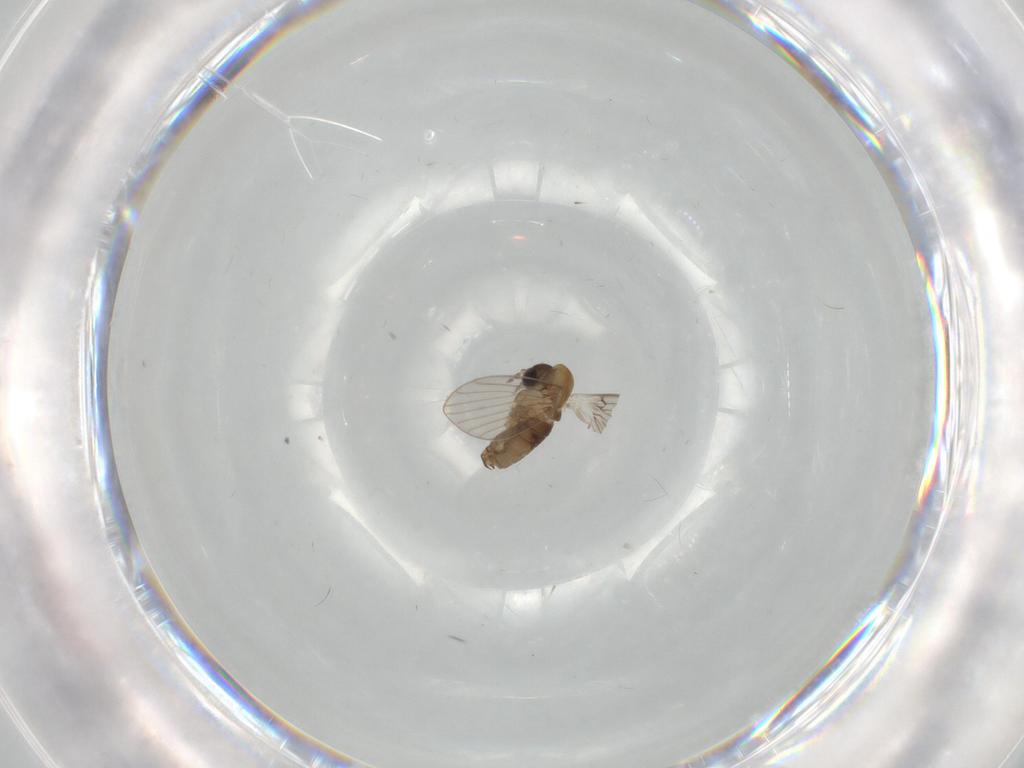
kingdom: Animalia
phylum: Arthropoda
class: Insecta
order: Diptera
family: Psychodidae
